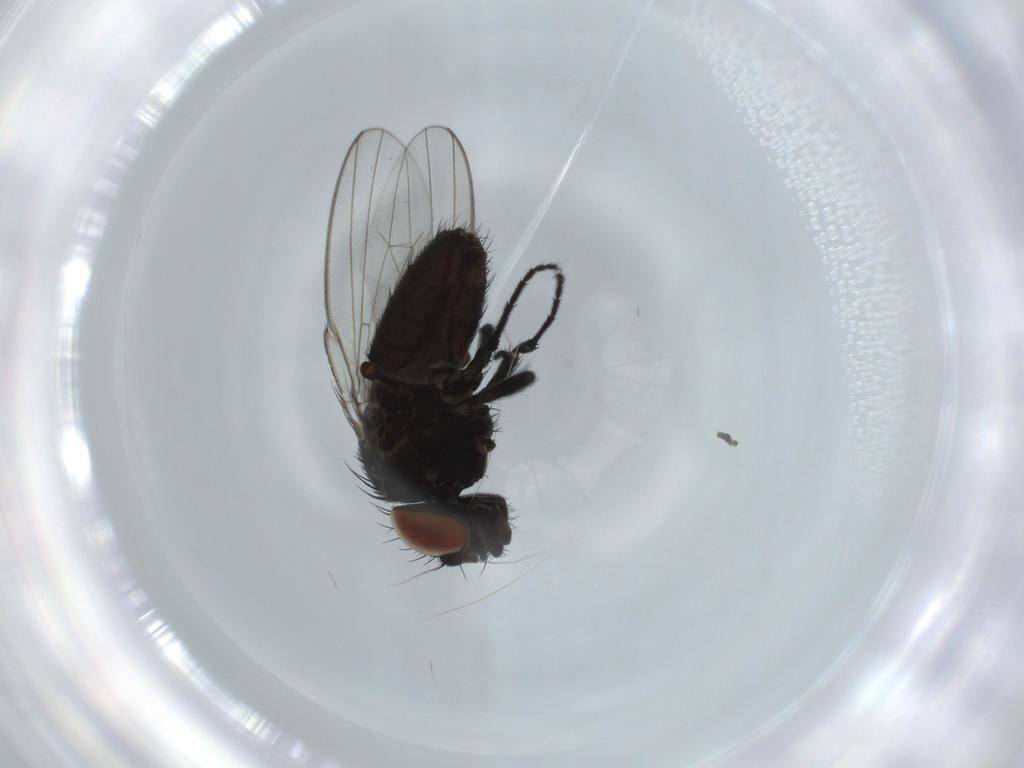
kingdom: Animalia
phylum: Arthropoda
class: Insecta
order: Diptera
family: Milichiidae
